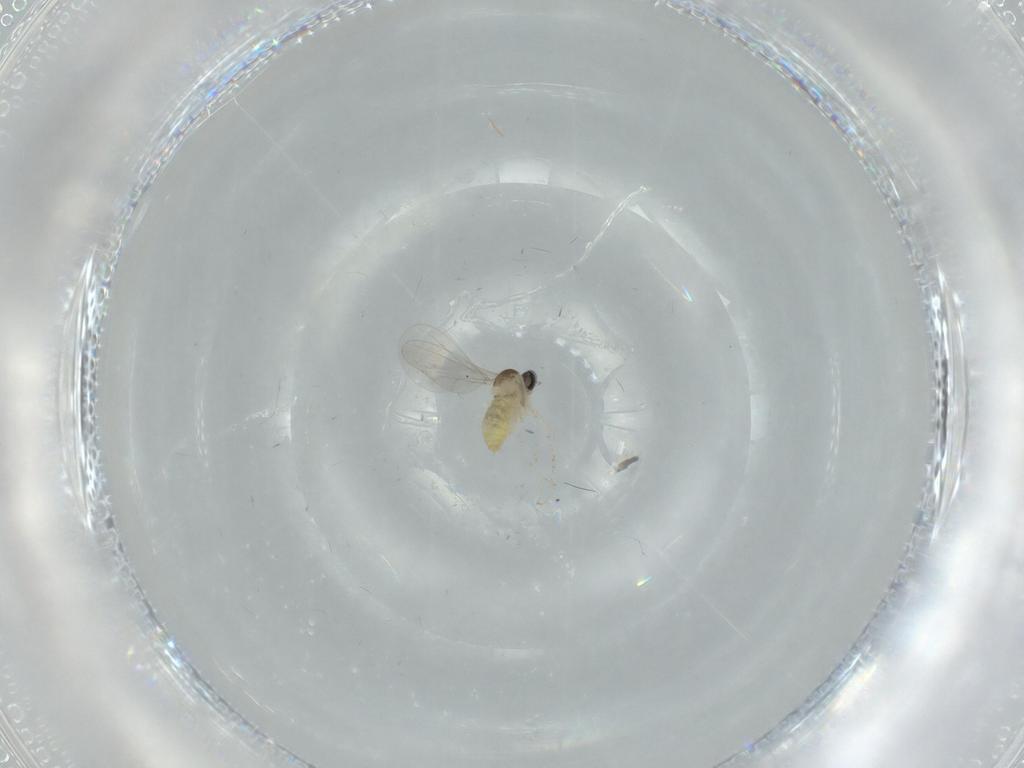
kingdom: Animalia
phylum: Arthropoda
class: Insecta
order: Diptera
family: Cecidomyiidae
